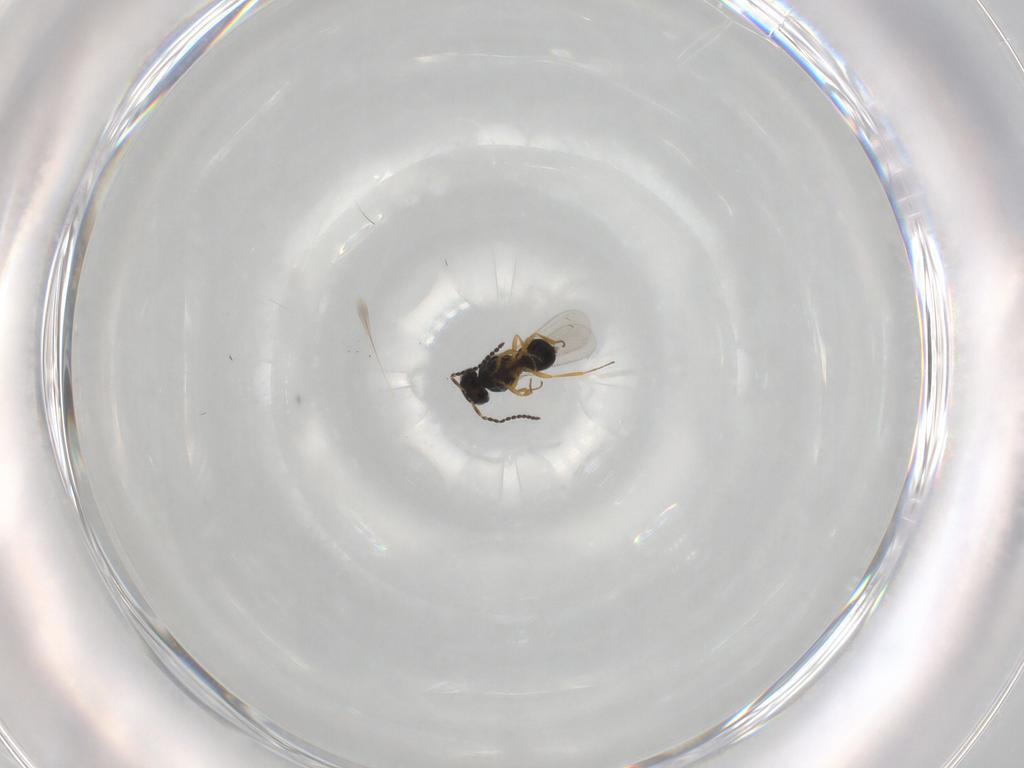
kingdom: Animalia
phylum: Arthropoda
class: Insecta
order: Hymenoptera
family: Scelionidae
